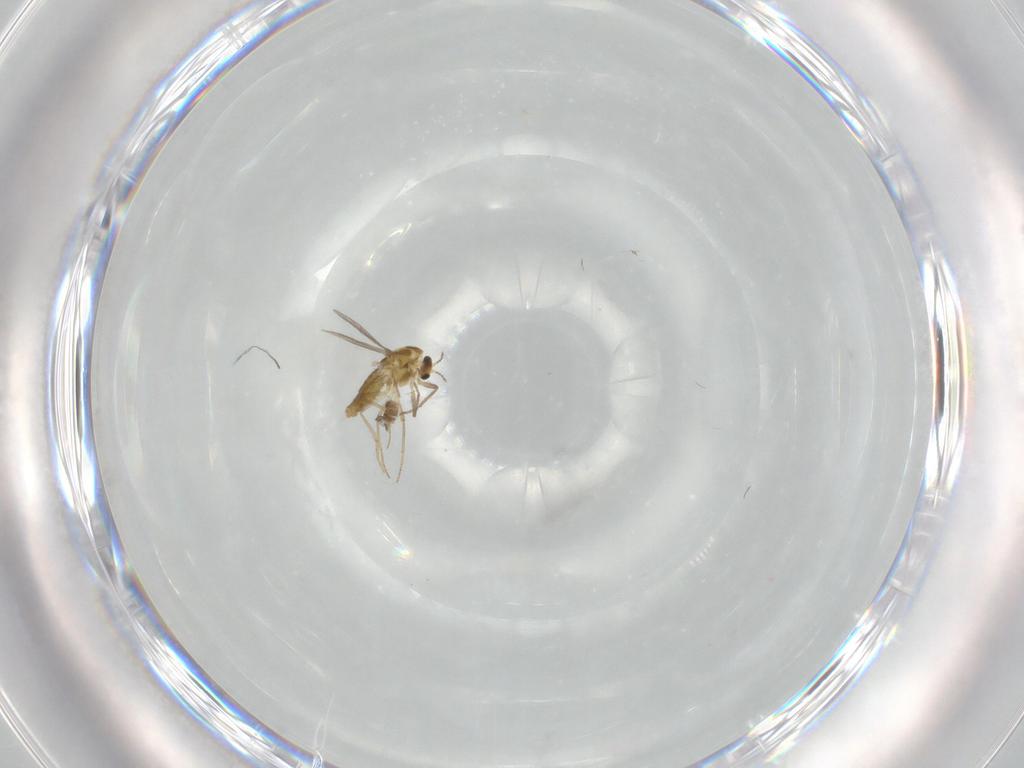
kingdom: Animalia
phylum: Arthropoda
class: Insecta
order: Diptera
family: Chironomidae
